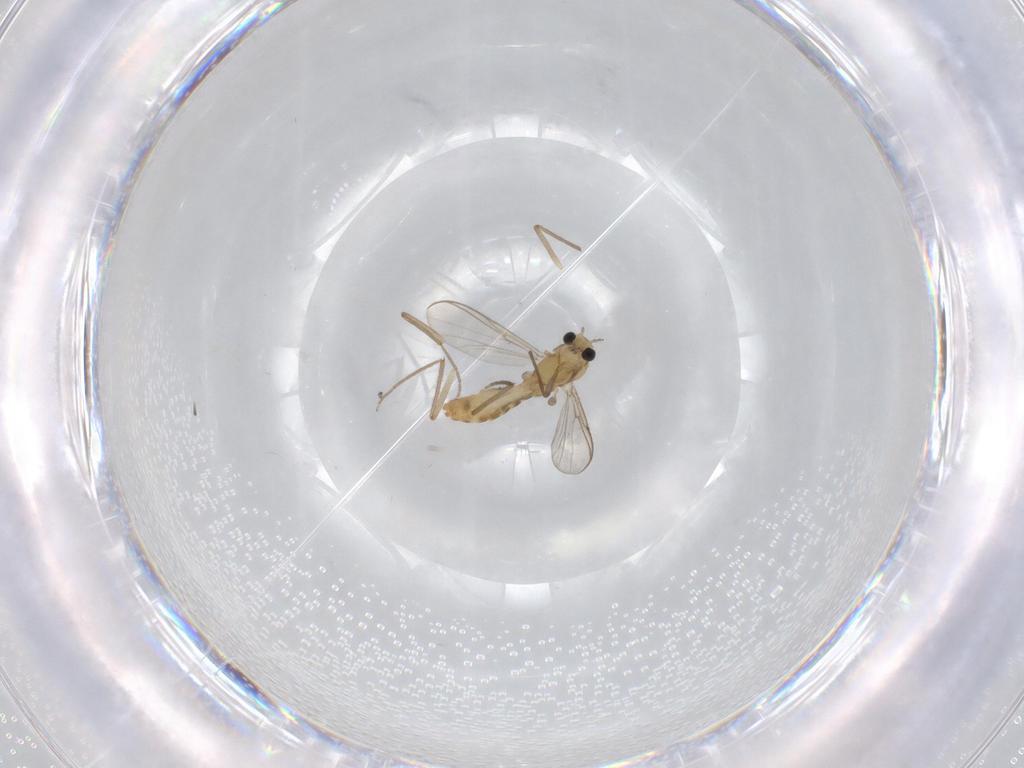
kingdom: Animalia
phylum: Arthropoda
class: Insecta
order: Diptera
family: Chironomidae
